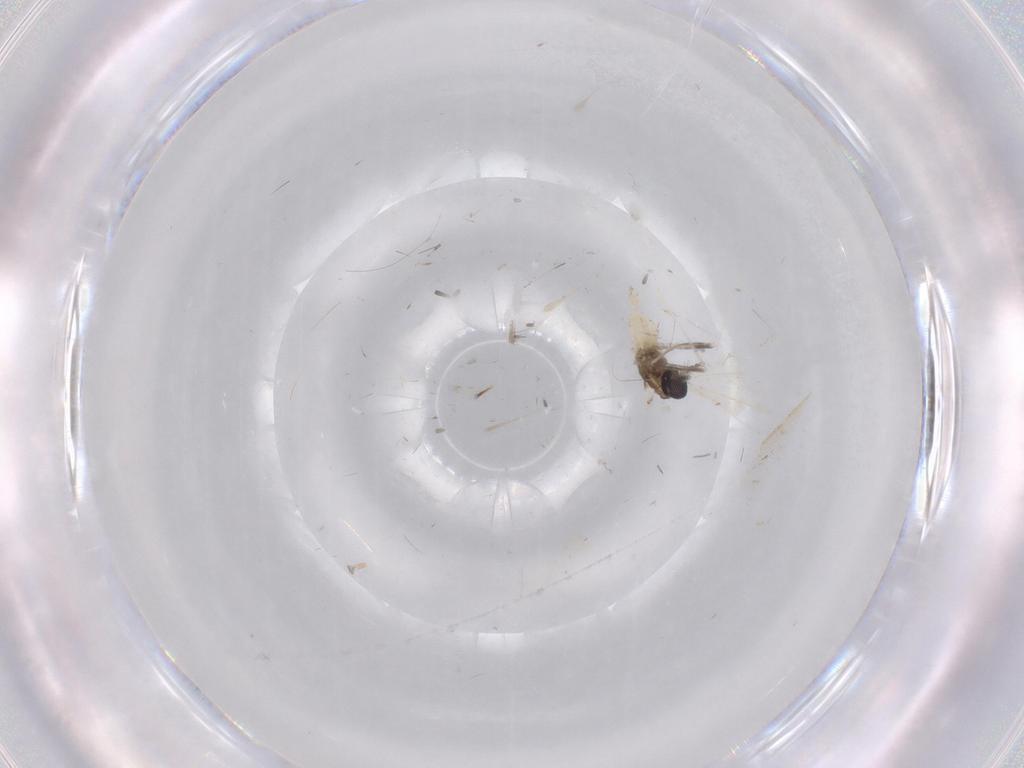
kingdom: Animalia
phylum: Arthropoda
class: Insecta
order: Diptera
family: Cecidomyiidae
